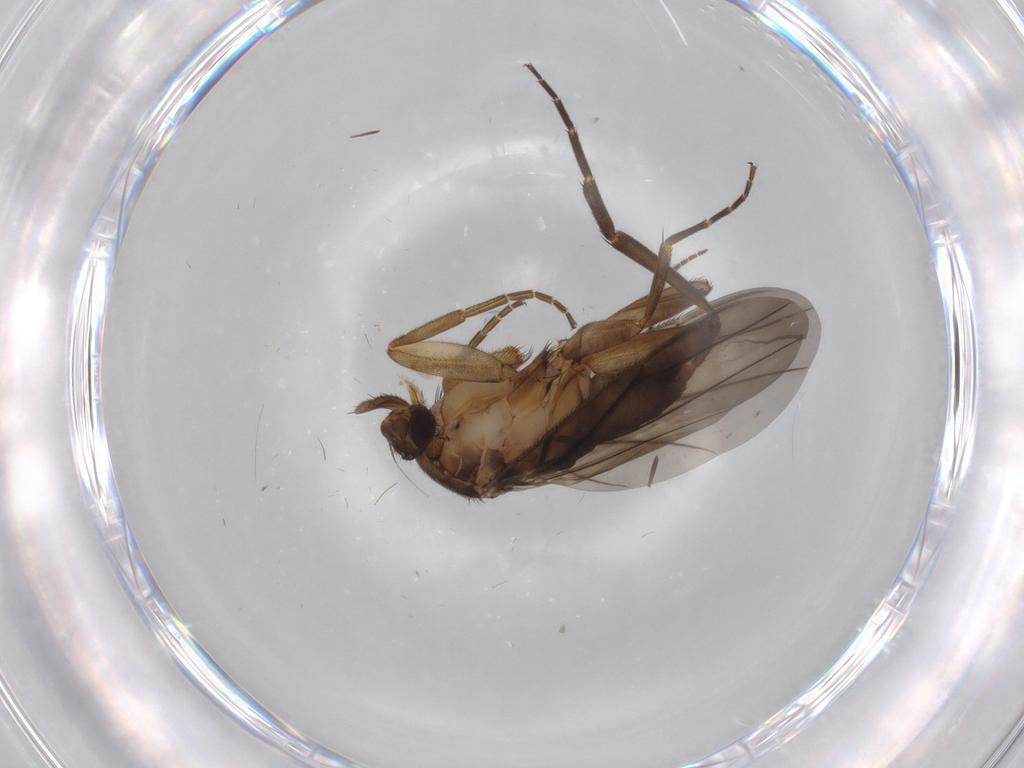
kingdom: Animalia
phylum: Arthropoda
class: Insecta
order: Diptera
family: Phoridae
